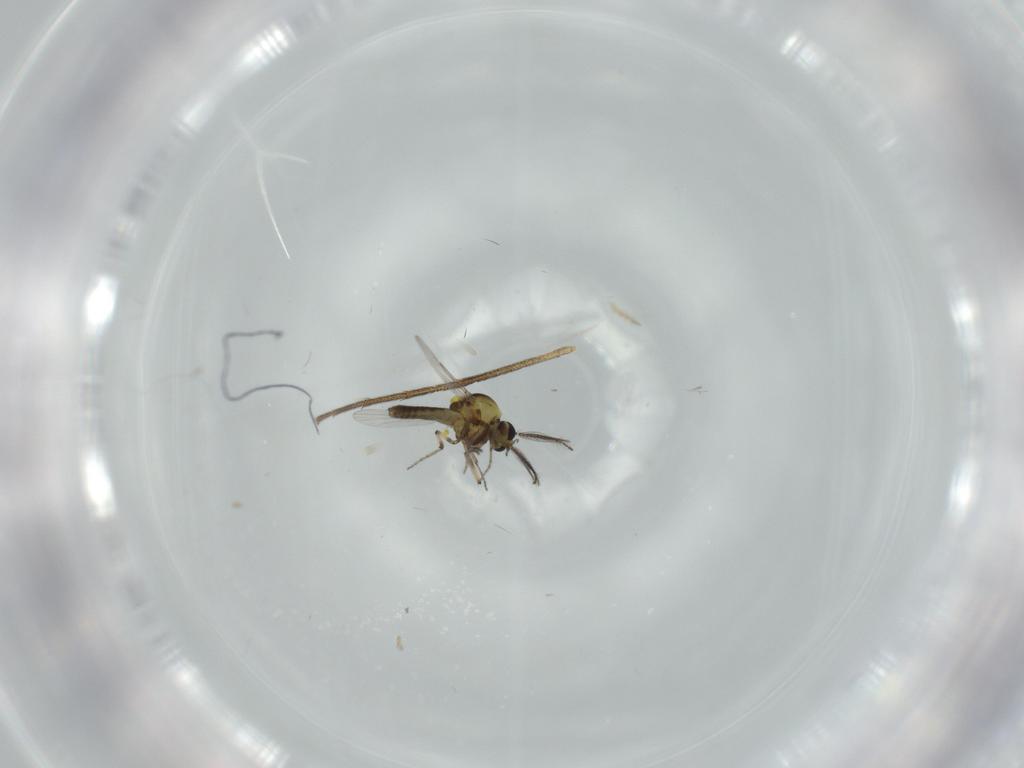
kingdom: Animalia
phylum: Arthropoda
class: Insecta
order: Diptera
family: Ceratopogonidae
